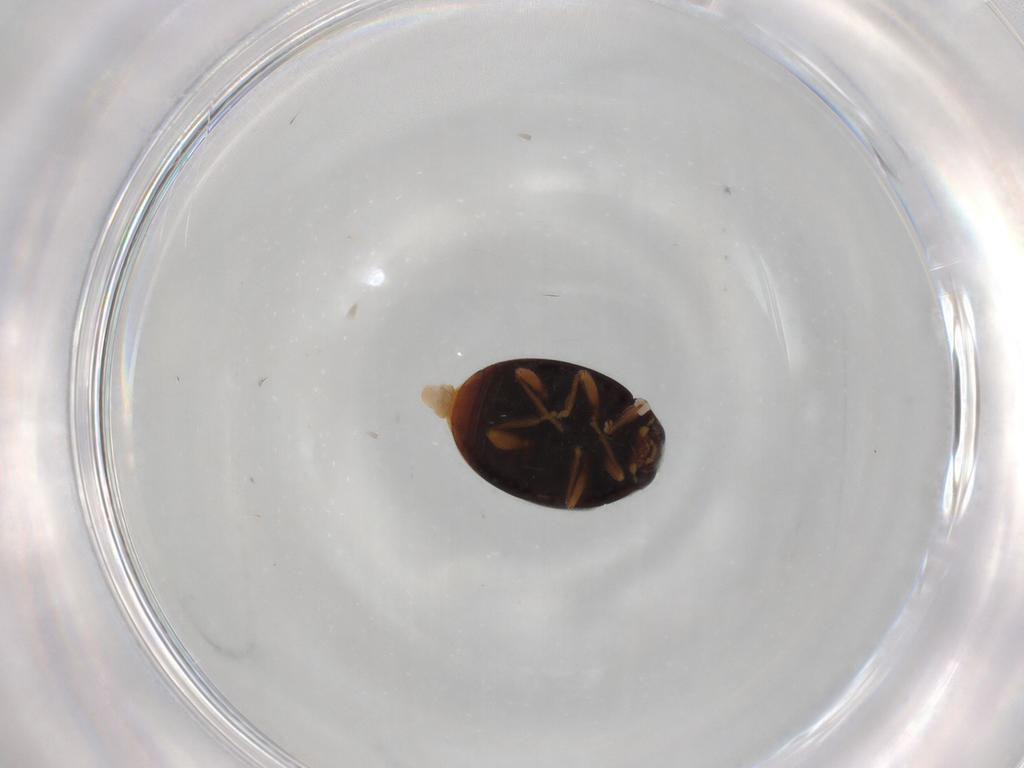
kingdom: Animalia
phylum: Arthropoda
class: Insecta
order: Coleoptera
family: Coccinellidae
